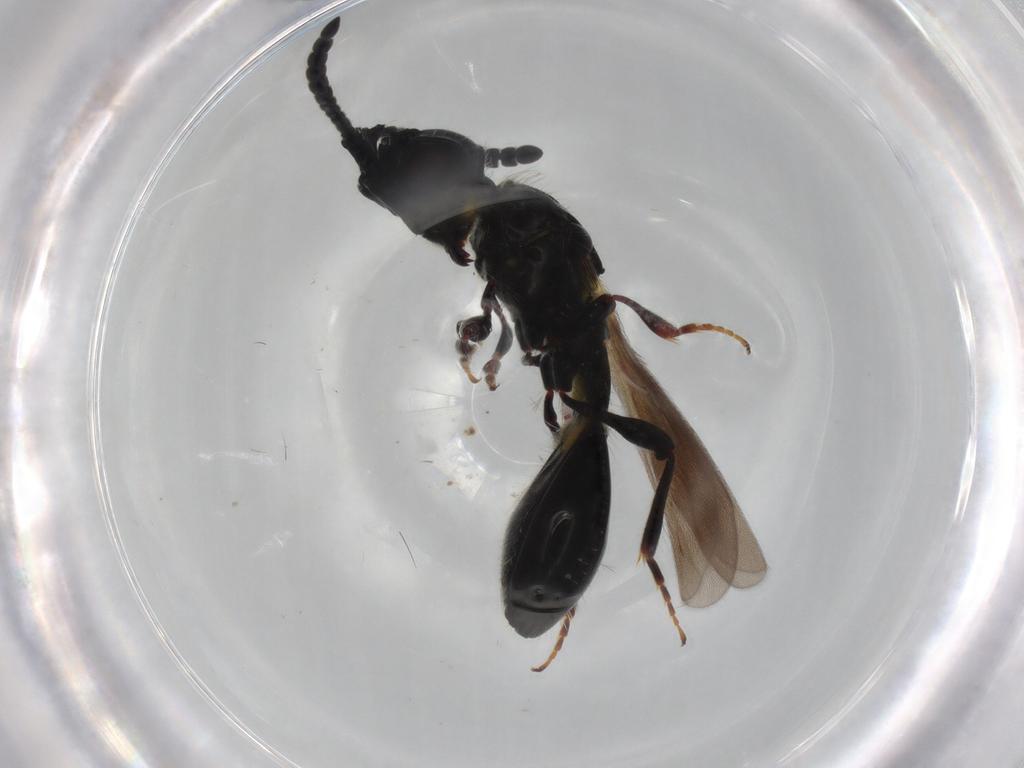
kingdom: Animalia
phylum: Arthropoda
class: Insecta
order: Hymenoptera
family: Diapriidae
